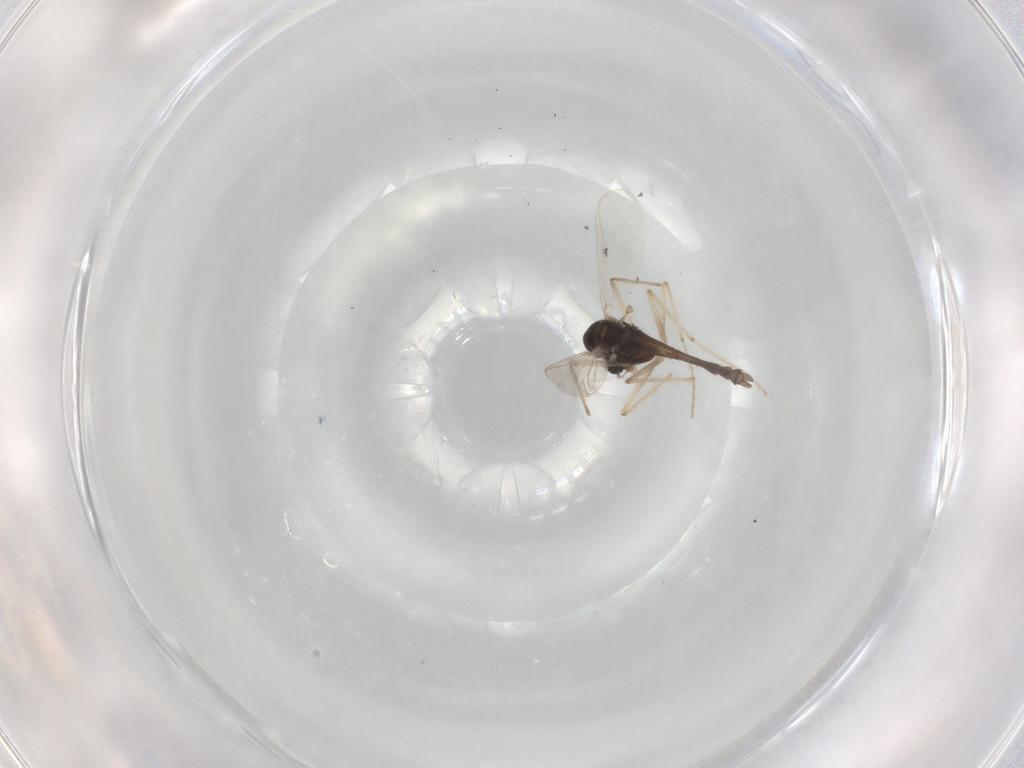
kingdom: Animalia
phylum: Arthropoda
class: Insecta
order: Diptera
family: Chironomidae
